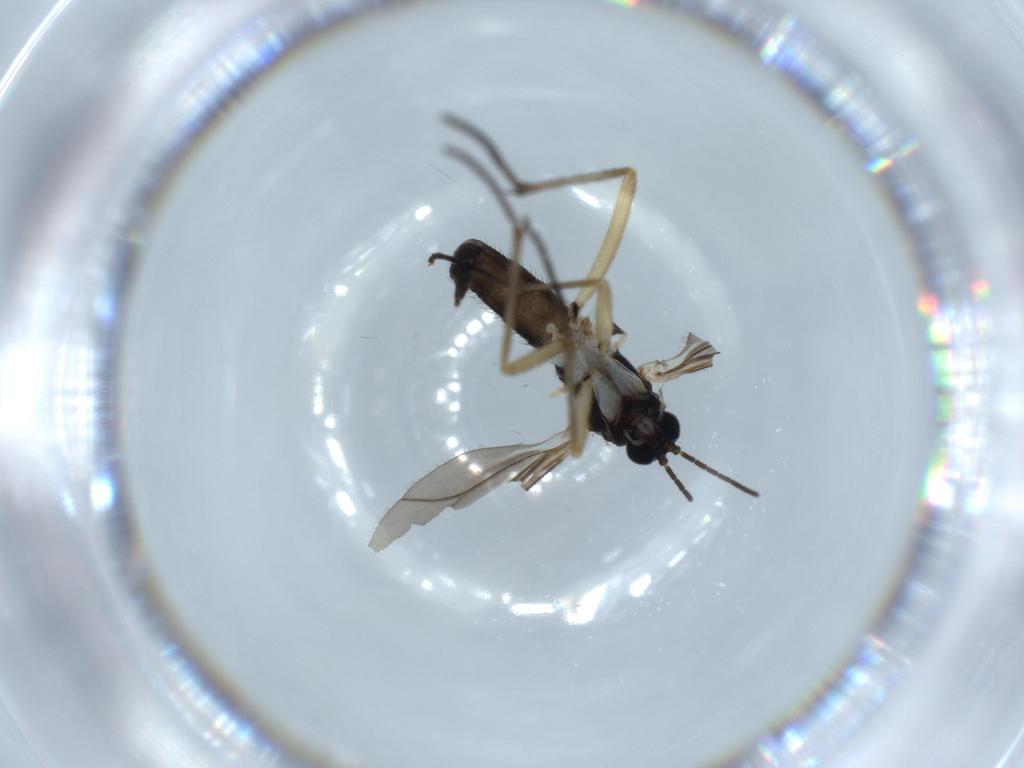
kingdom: Animalia
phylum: Arthropoda
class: Insecta
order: Diptera
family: Sciaridae
